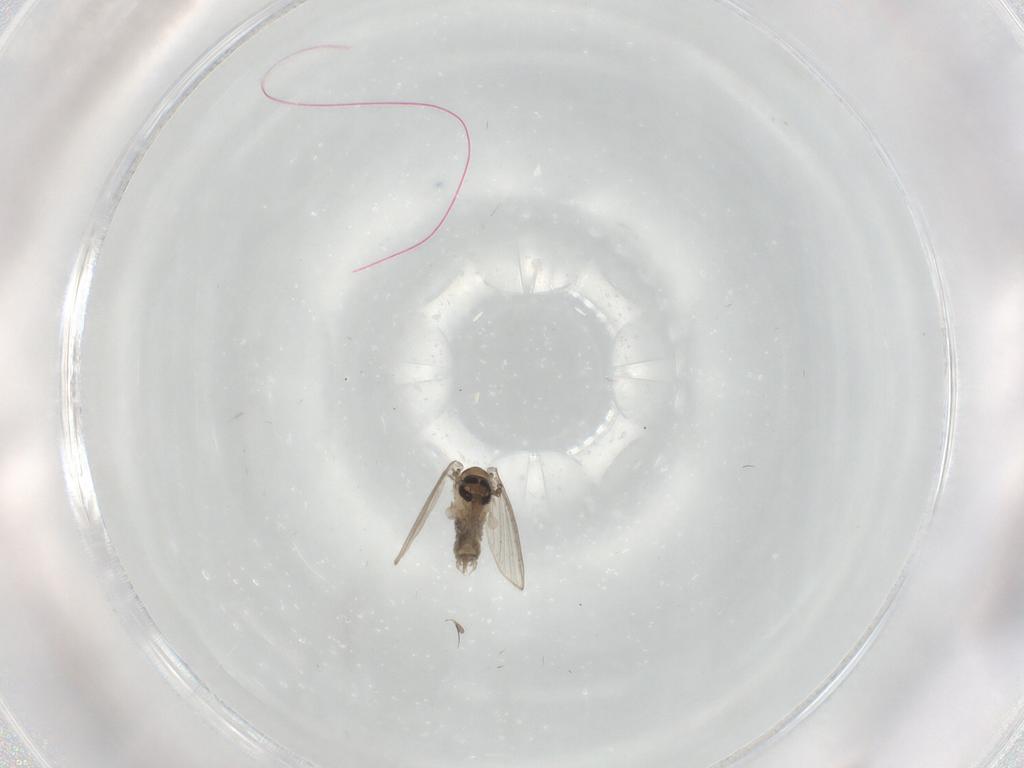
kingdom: Animalia
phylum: Arthropoda
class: Insecta
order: Diptera
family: Psychodidae
